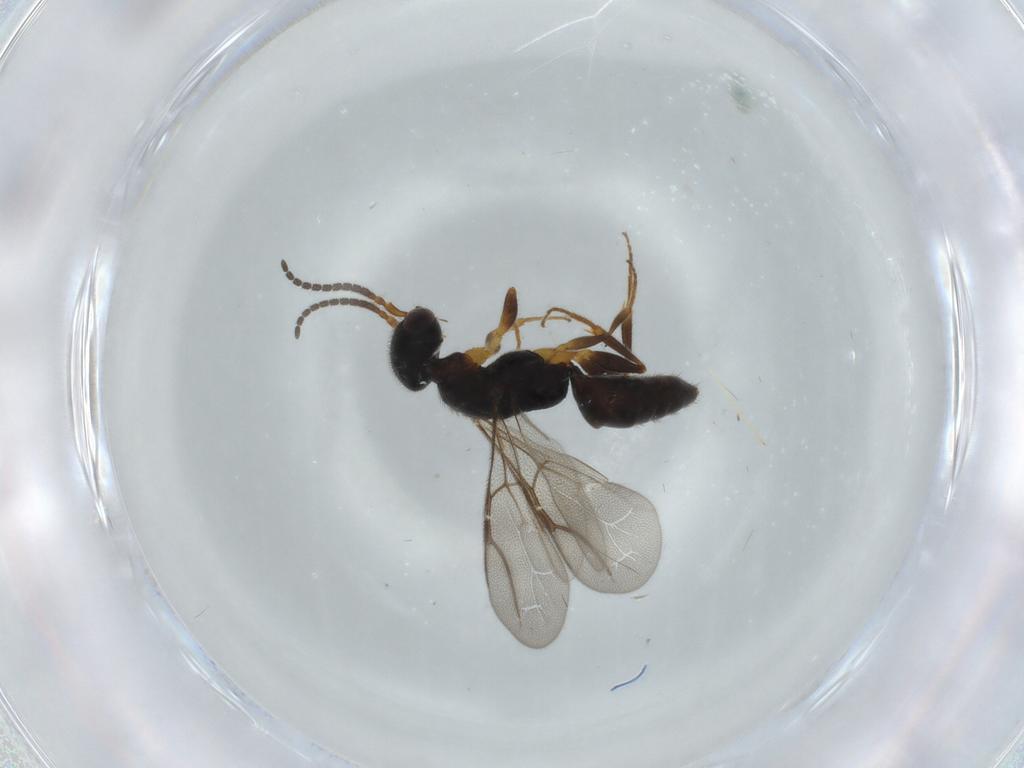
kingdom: Animalia
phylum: Arthropoda
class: Insecta
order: Hymenoptera
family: Bethylidae
